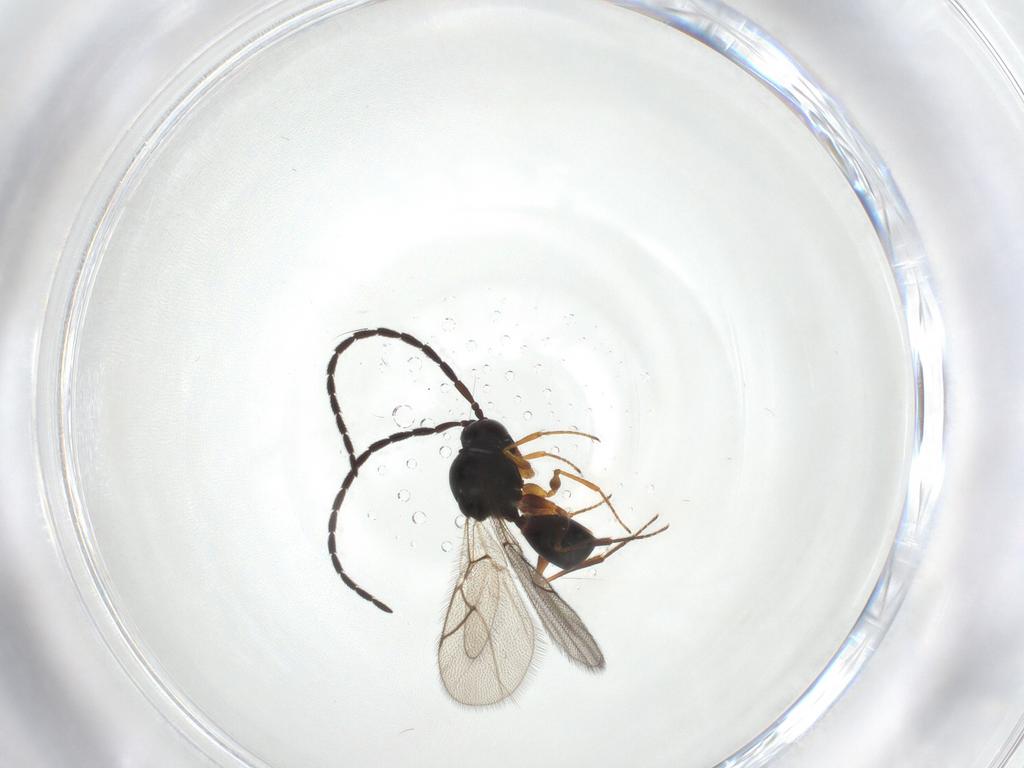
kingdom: Animalia
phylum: Arthropoda
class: Insecta
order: Hymenoptera
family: Figitidae
